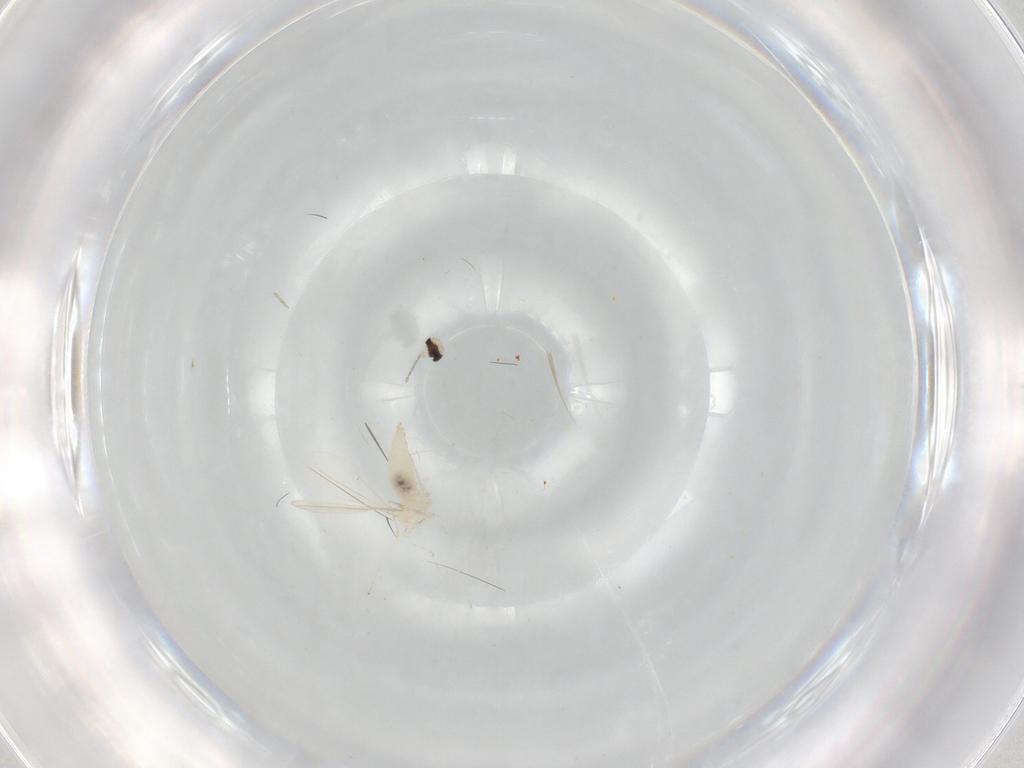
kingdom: Animalia
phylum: Arthropoda
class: Insecta
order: Diptera
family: Cecidomyiidae
